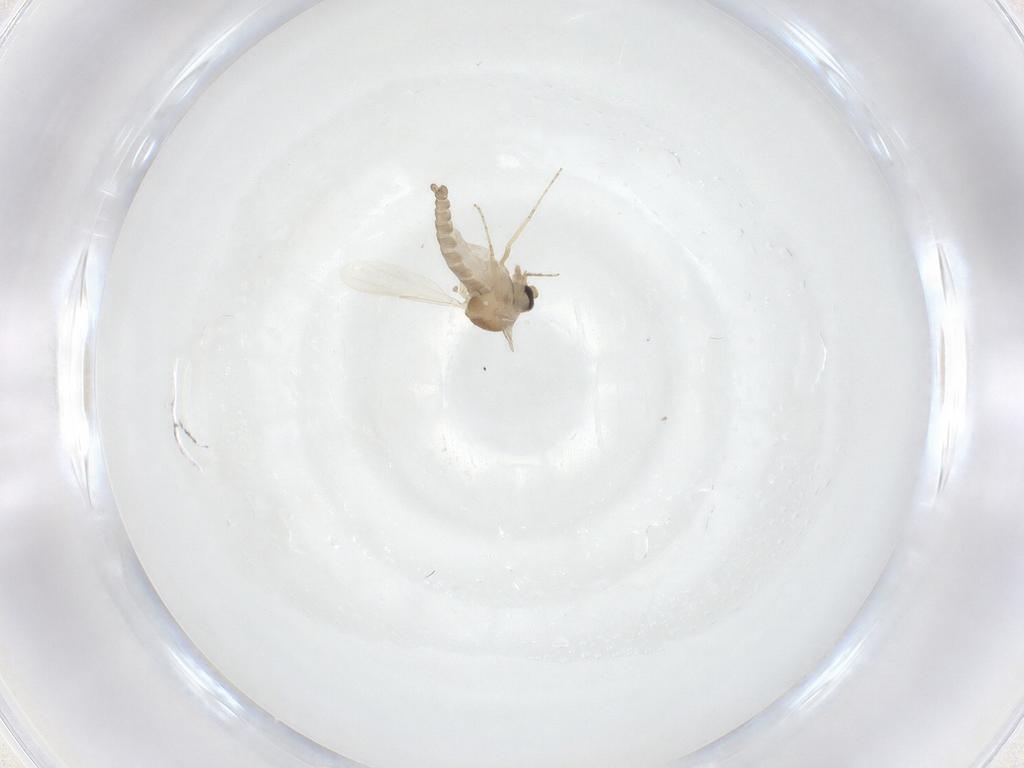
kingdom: Animalia
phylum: Arthropoda
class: Insecta
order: Diptera
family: Ceratopogonidae
